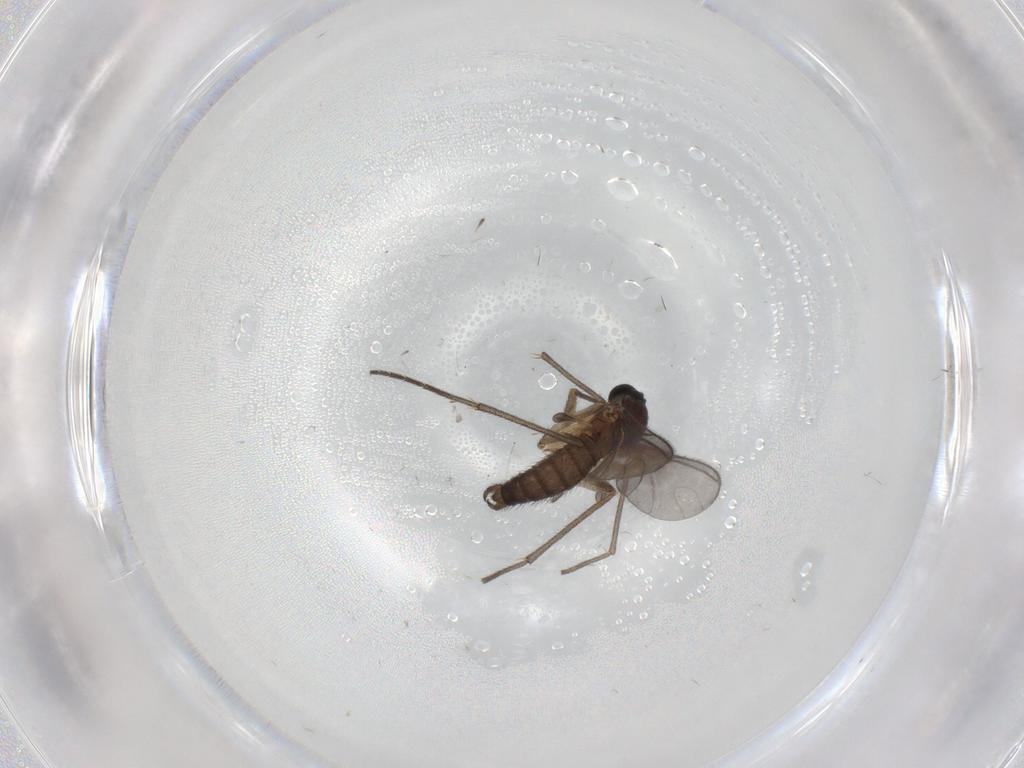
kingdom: Animalia
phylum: Arthropoda
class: Insecta
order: Diptera
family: Sciaridae
